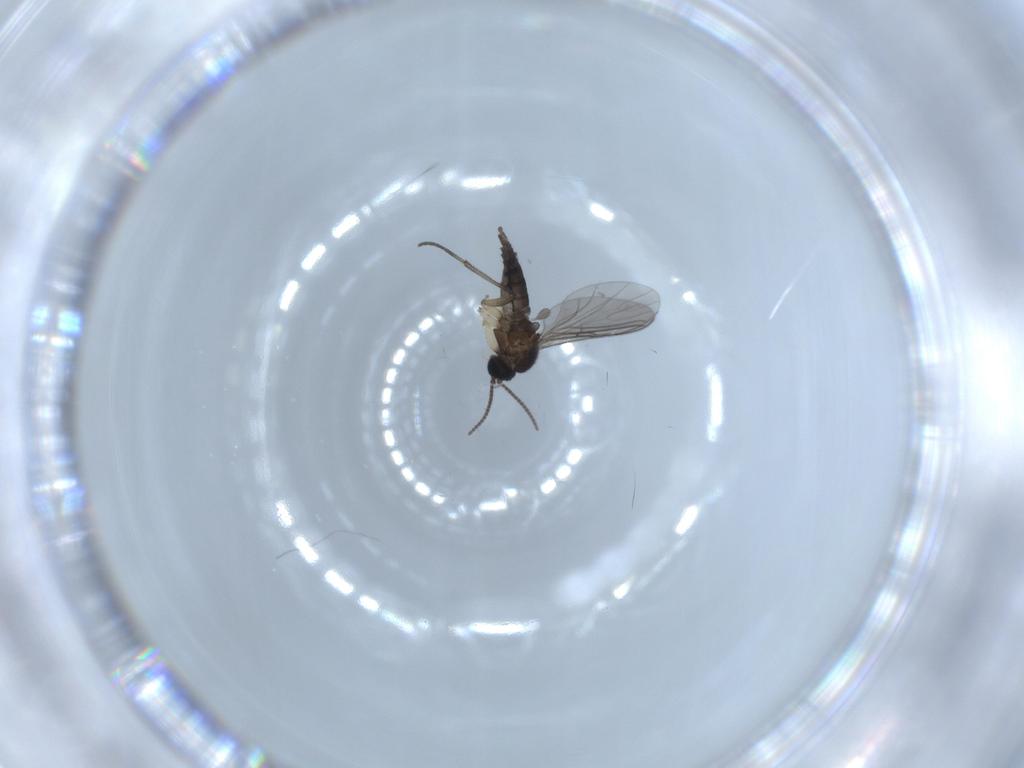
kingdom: Animalia
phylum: Arthropoda
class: Insecta
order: Diptera
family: Sciaridae
